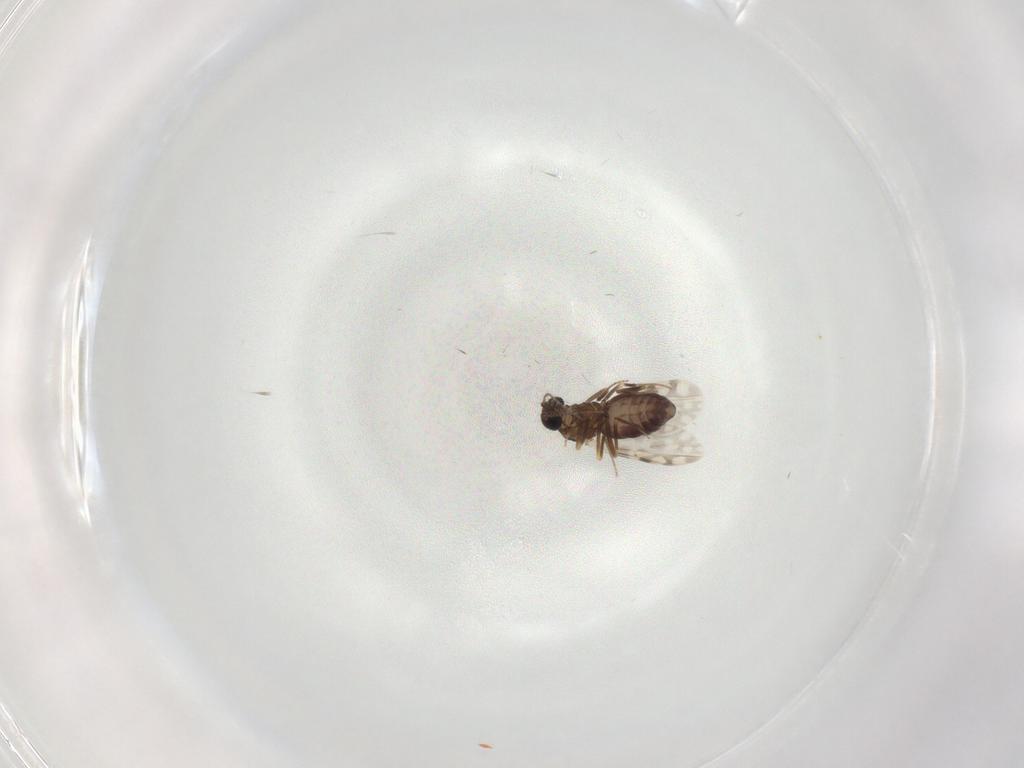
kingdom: Animalia
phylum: Arthropoda
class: Insecta
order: Diptera
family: Ceratopogonidae
